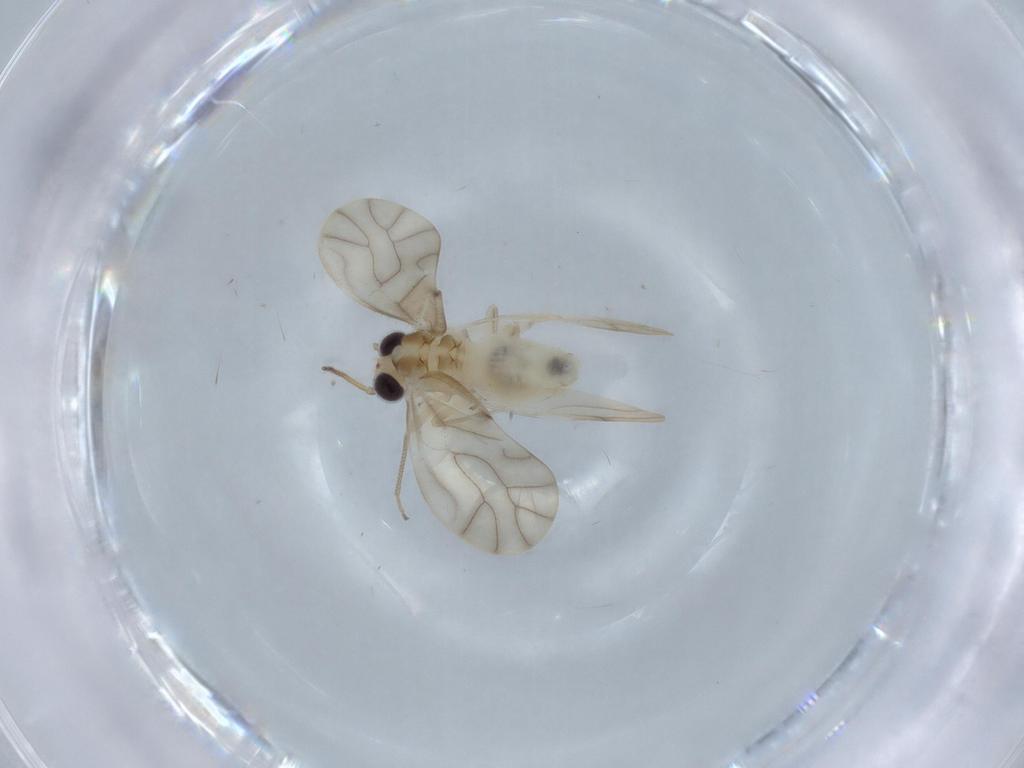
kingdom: Animalia
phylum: Arthropoda
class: Insecta
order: Psocodea
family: Caeciliusidae
